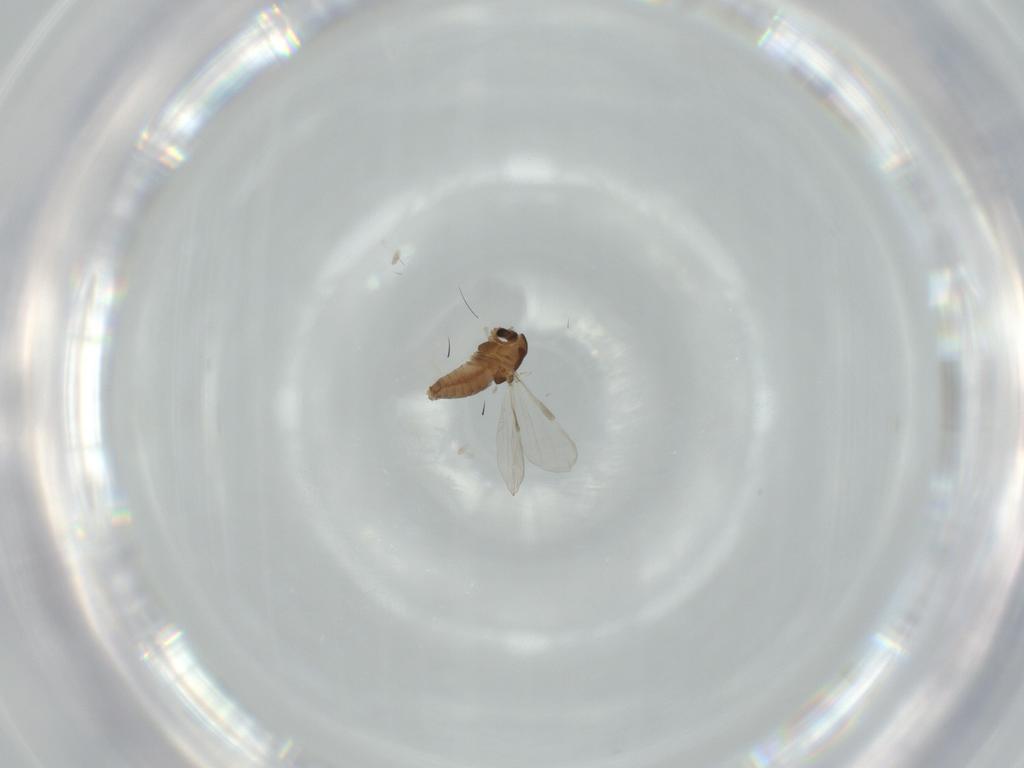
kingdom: Animalia
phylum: Arthropoda
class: Insecta
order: Diptera
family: Chironomidae
